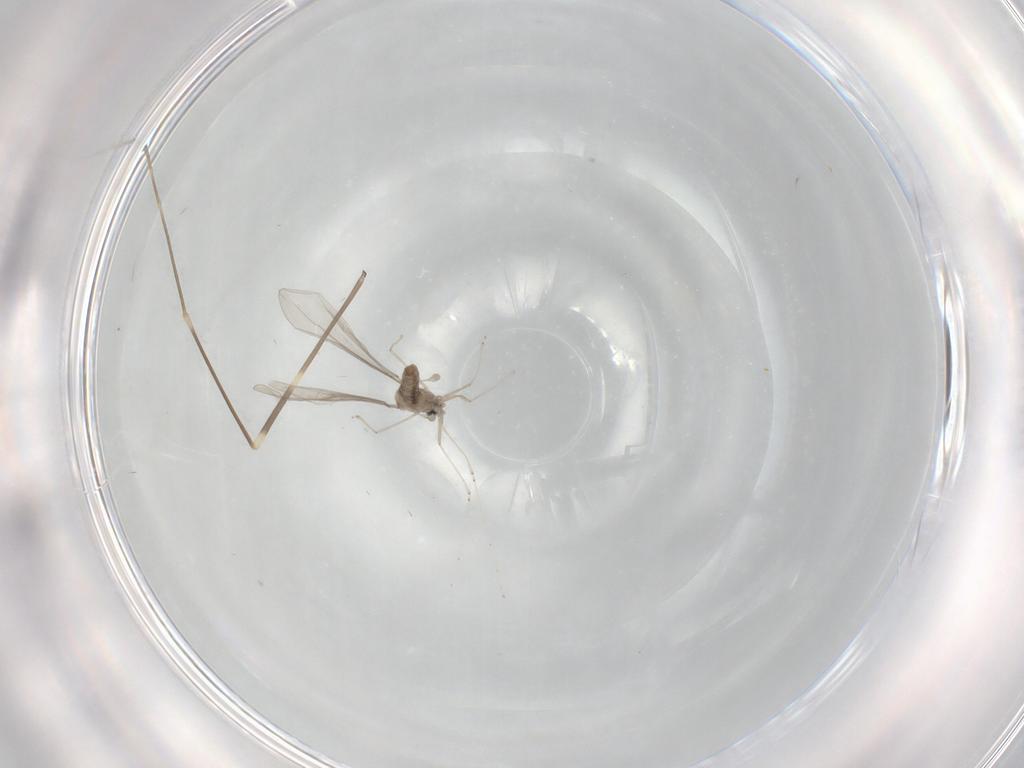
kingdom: Animalia
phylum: Arthropoda
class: Insecta
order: Diptera
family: Limoniidae
